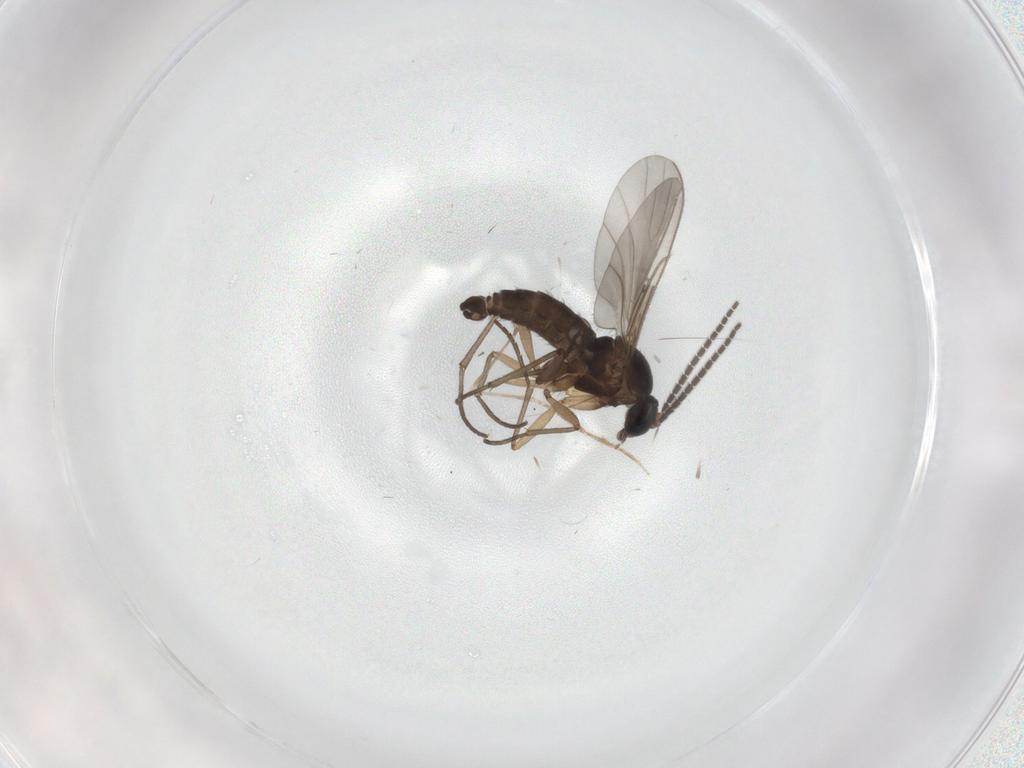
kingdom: Animalia
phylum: Arthropoda
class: Insecta
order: Diptera
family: Sciaridae
